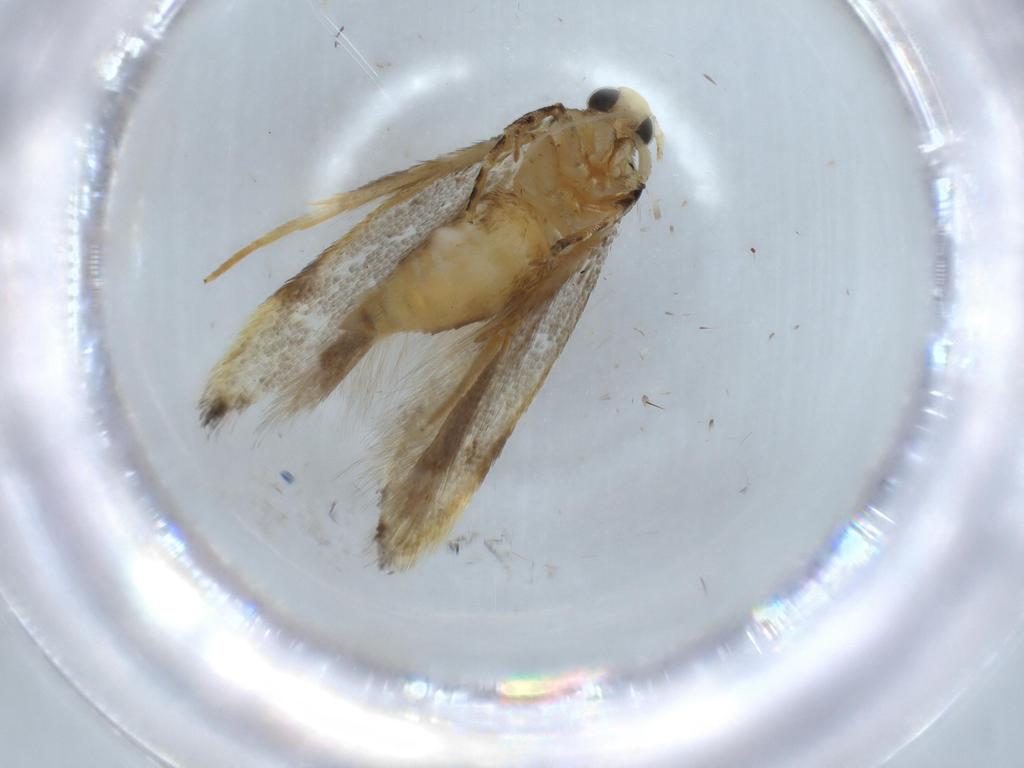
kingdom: Animalia
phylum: Arthropoda
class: Insecta
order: Lepidoptera
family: Autostichidae
